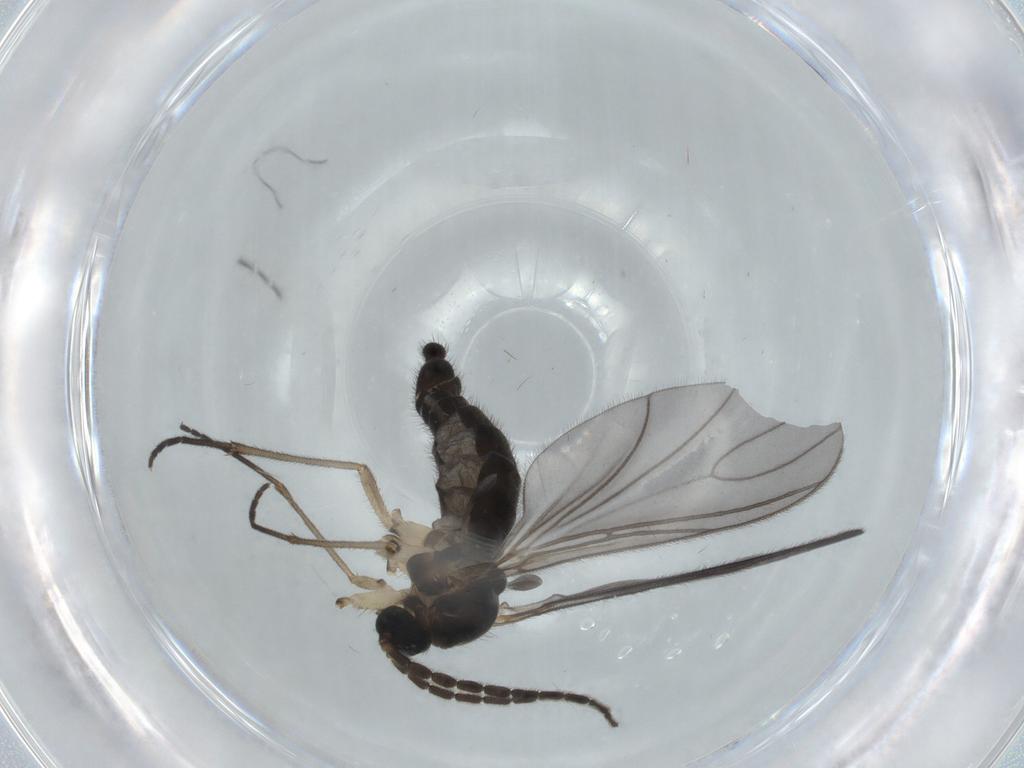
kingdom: Animalia
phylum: Arthropoda
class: Insecta
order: Diptera
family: Sciaridae
